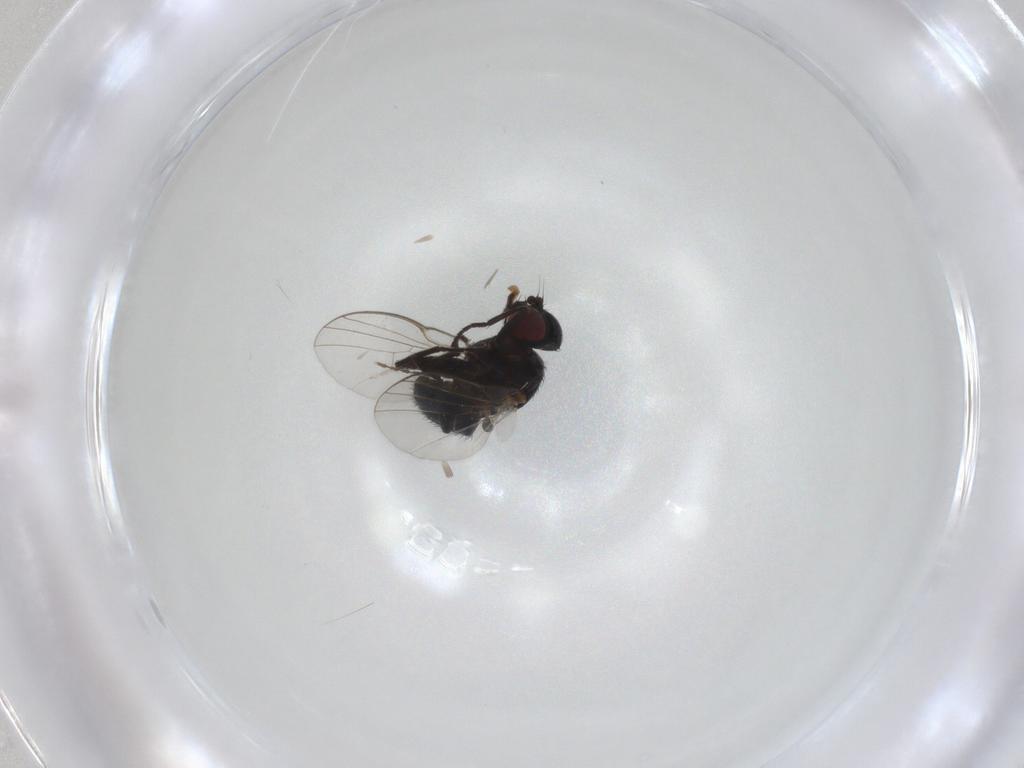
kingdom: Animalia
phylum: Arthropoda
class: Insecta
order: Diptera
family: Agromyzidae
